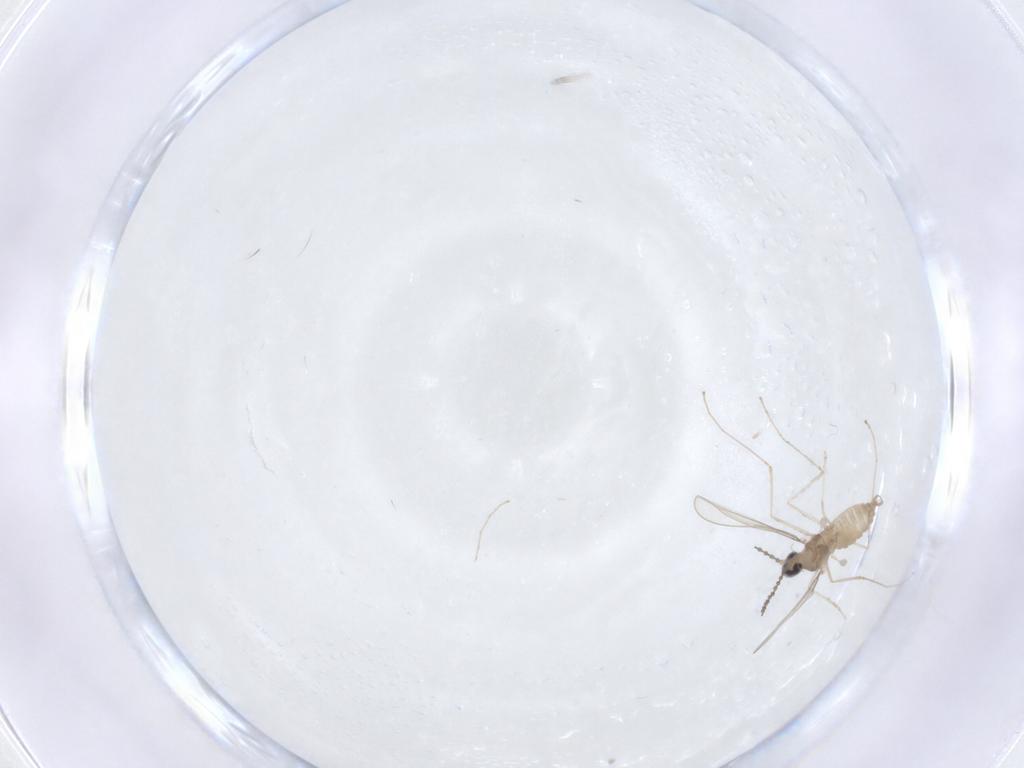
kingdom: Animalia
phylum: Arthropoda
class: Insecta
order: Diptera
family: Cecidomyiidae
